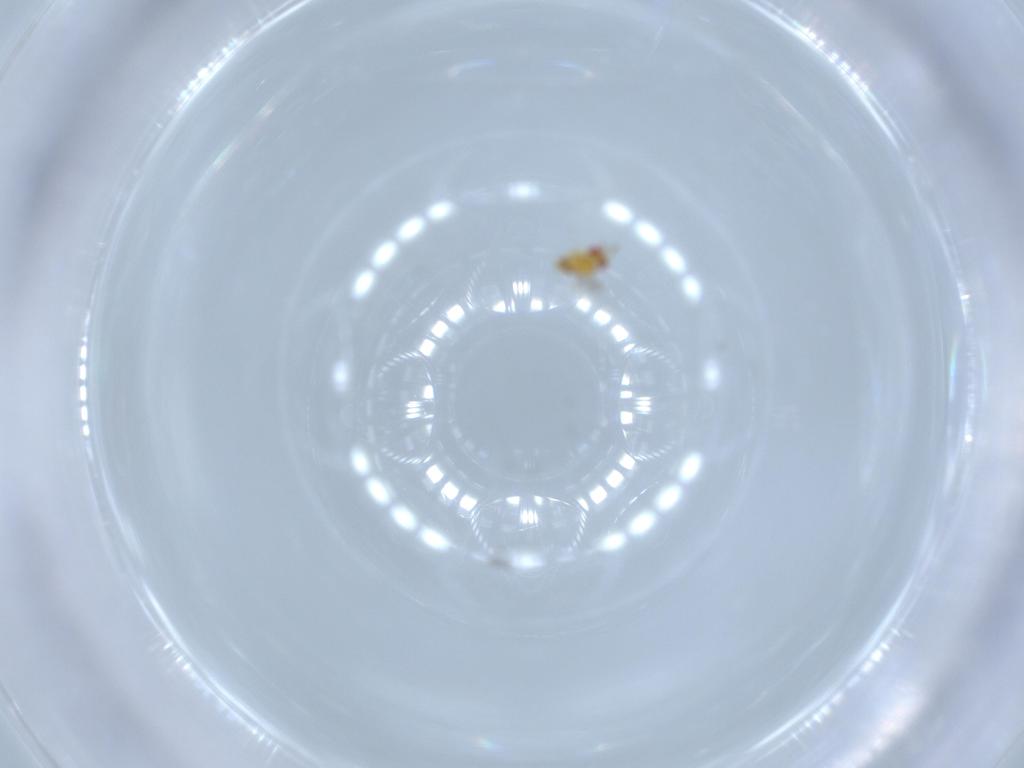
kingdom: Animalia
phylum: Arthropoda
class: Insecta
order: Hymenoptera
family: Trichogrammatidae
